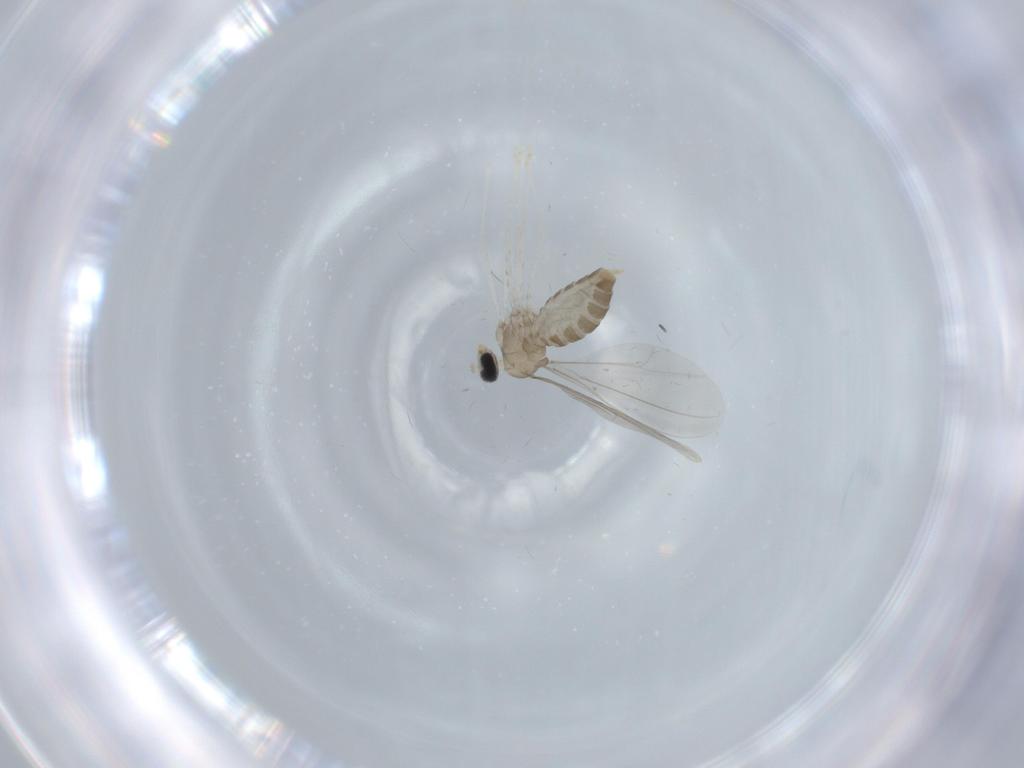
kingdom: Animalia
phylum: Arthropoda
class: Insecta
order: Diptera
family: Cecidomyiidae
